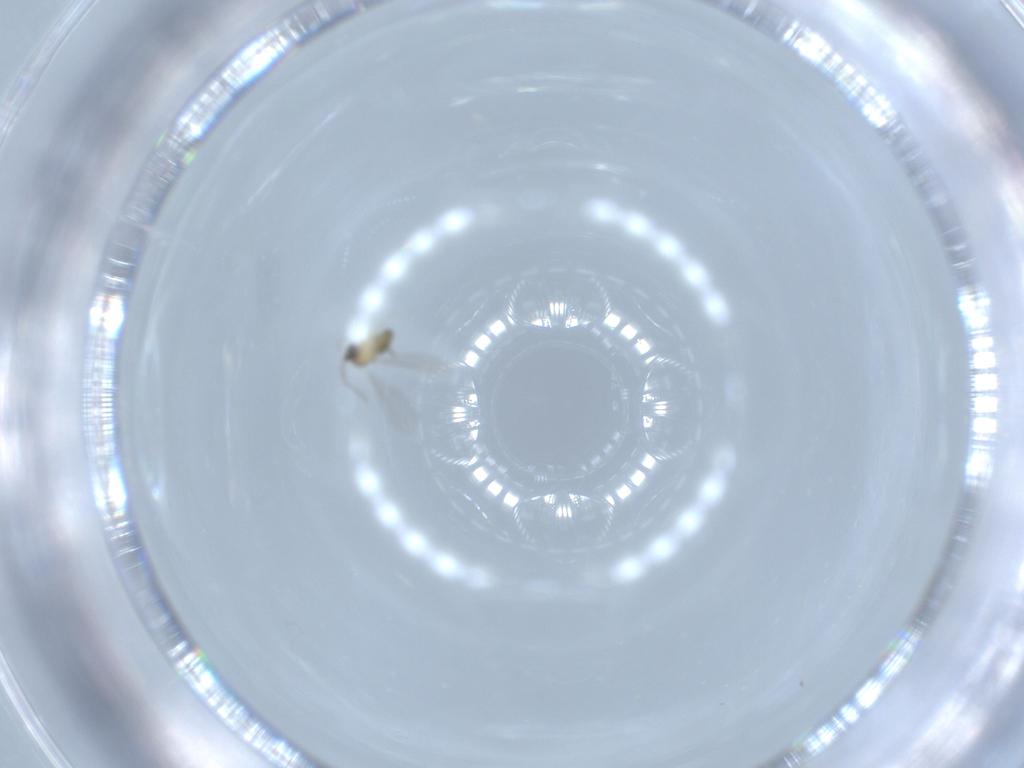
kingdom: Animalia
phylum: Arthropoda
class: Insecta
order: Diptera
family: Cecidomyiidae
